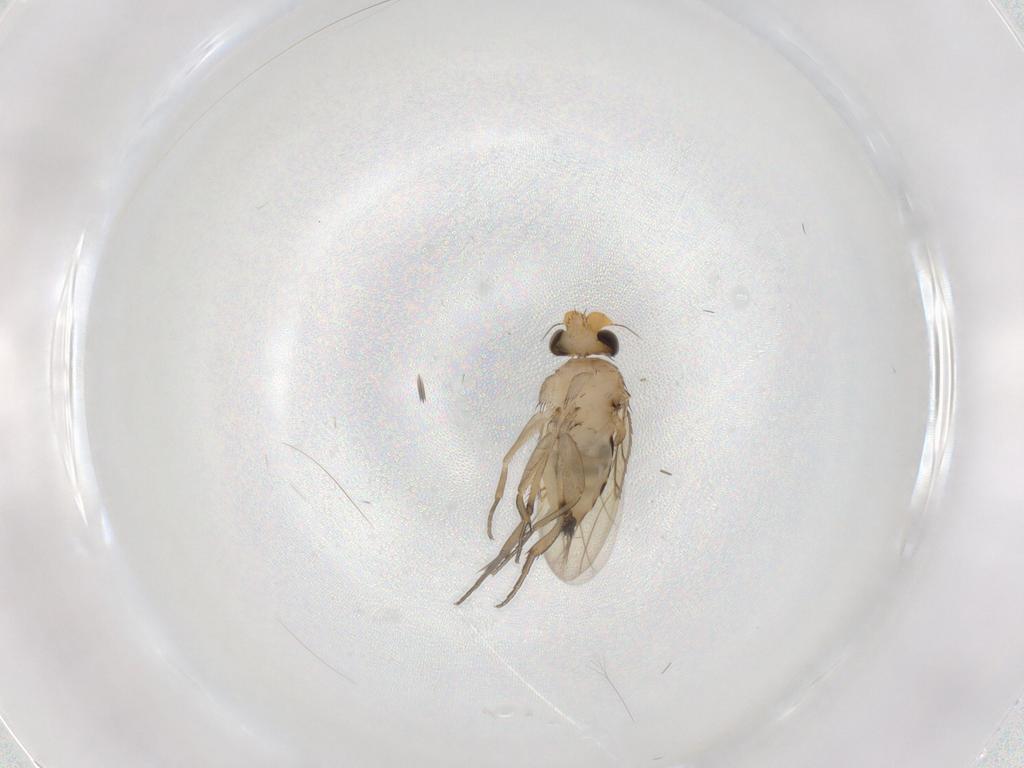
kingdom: Animalia
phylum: Arthropoda
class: Insecta
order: Diptera
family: Phoridae
